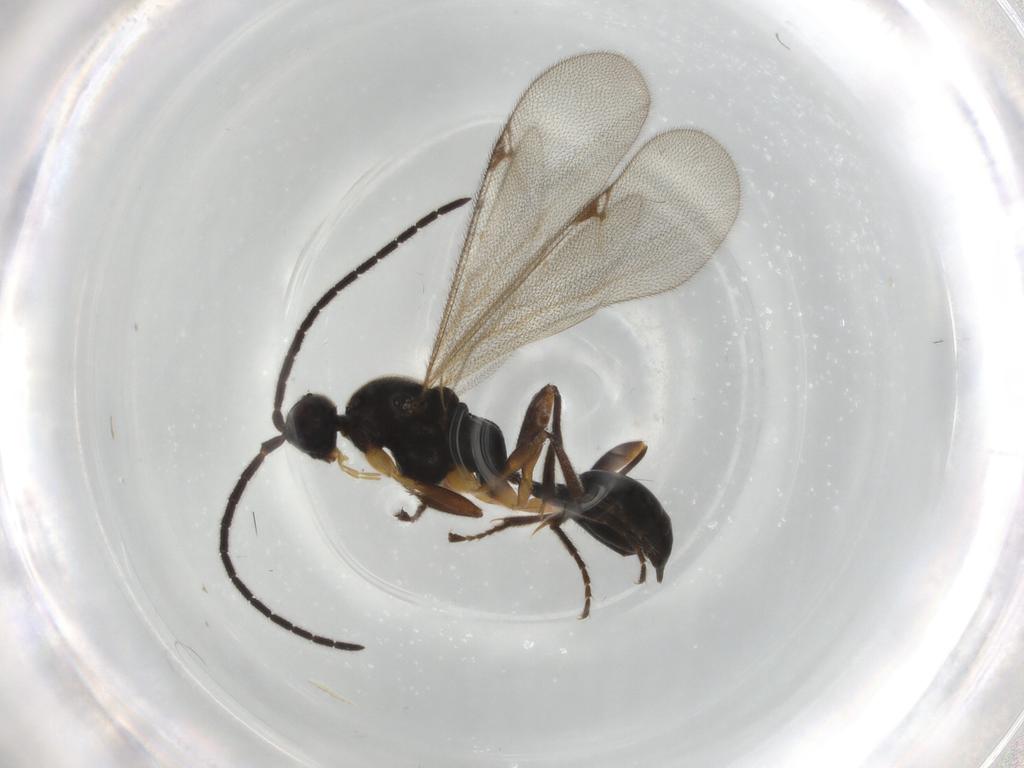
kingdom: Animalia
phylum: Arthropoda
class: Insecta
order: Hymenoptera
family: Proctotrupidae
